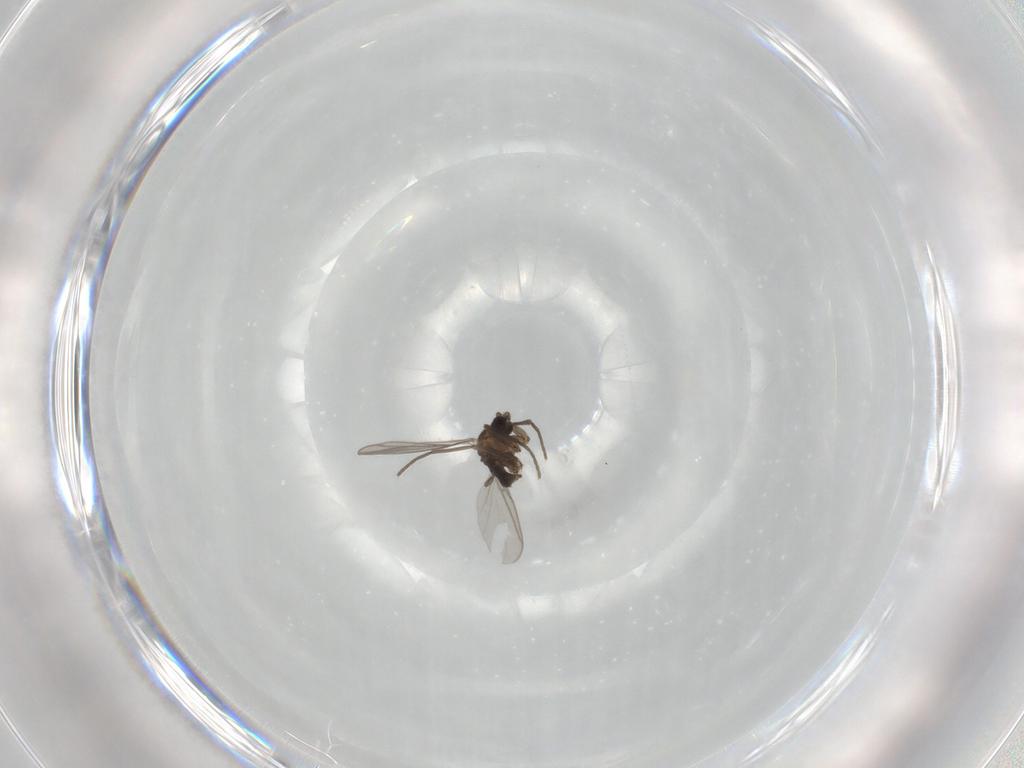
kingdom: Animalia
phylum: Arthropoda
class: Insecta
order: Diptera
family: Sciaridae
